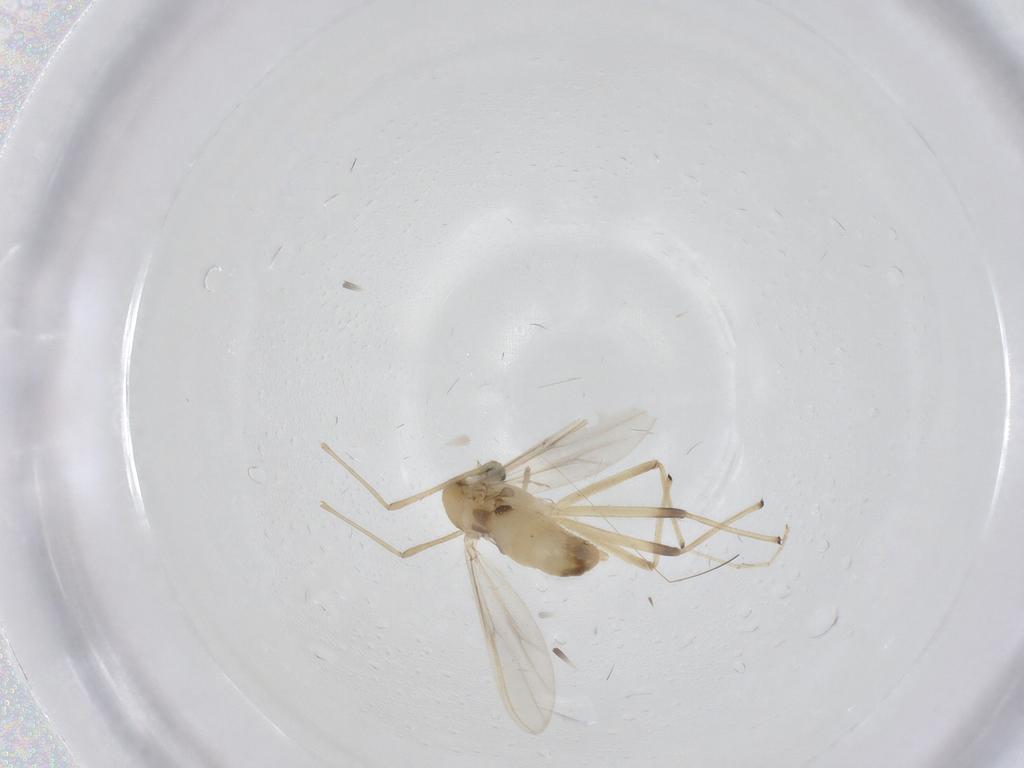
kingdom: Animalia
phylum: Arthropoda
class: Insecta
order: Diptera
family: Chironomidae
